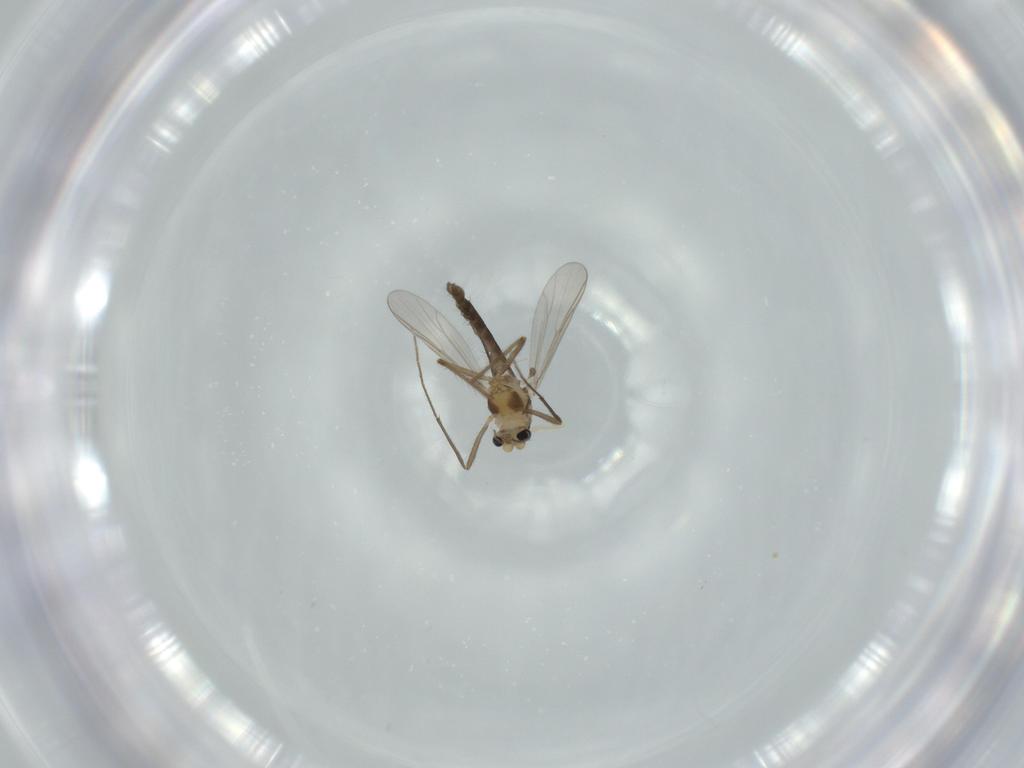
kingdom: Animalia
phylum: Arthropoda
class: Insecta
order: Diptera
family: Chironomidae
